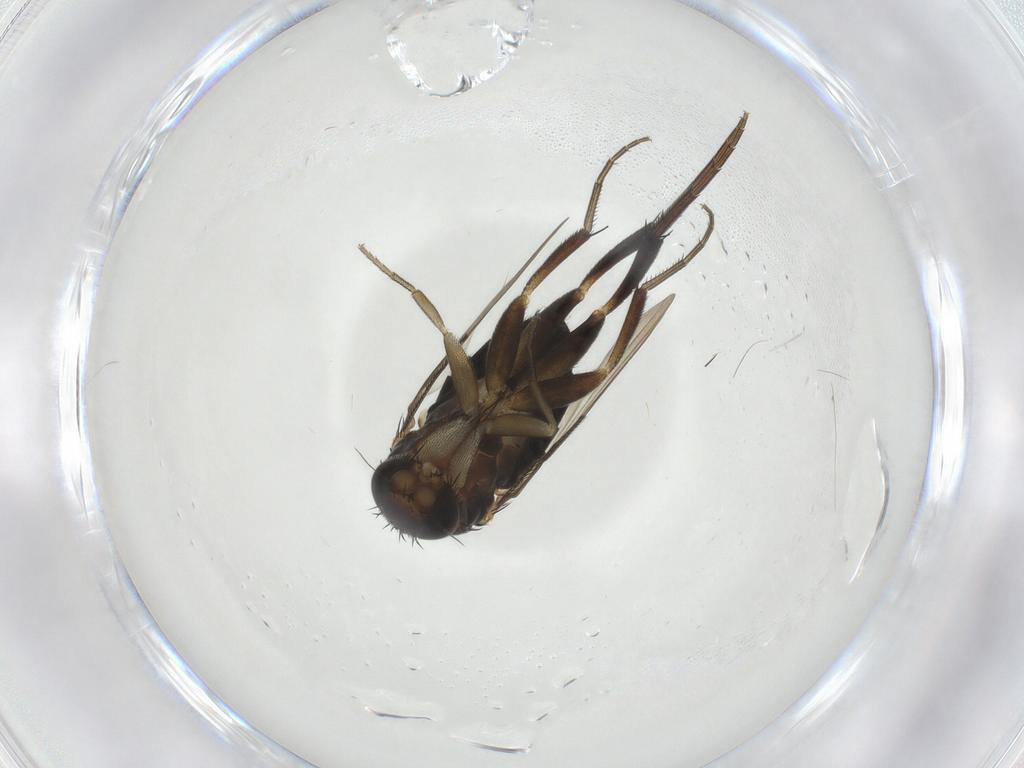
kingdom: Animalia
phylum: Arthropoda
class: Insecta
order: Diptera
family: Phoridae
